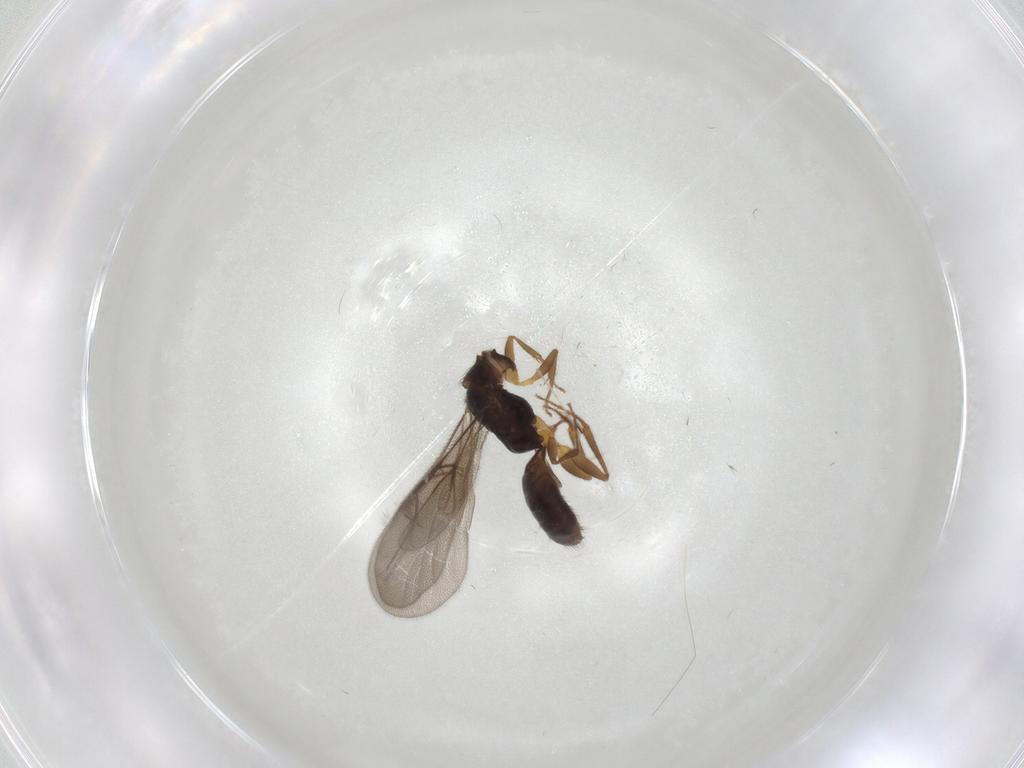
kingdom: Animalia
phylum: Arthropoda
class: Insecta
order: Hymenoptera
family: Bethylidae
